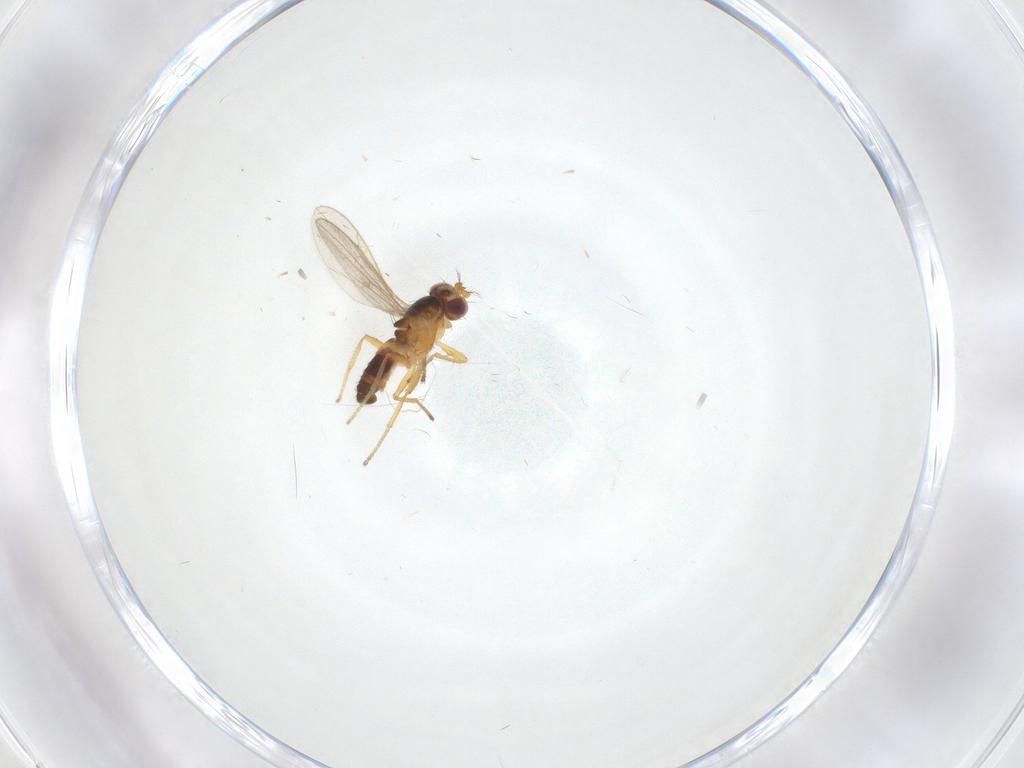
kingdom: Animalia
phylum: Arthropoda
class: Insecta
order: Diptera
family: Periscelididae
